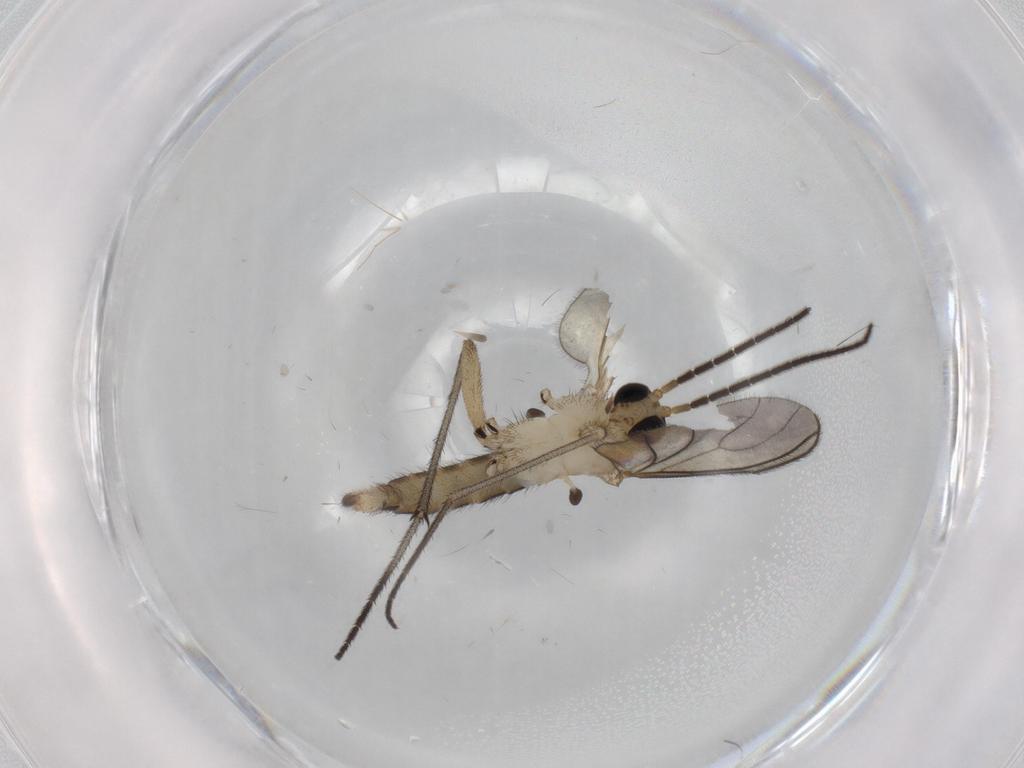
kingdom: Animalia
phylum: Arthropoda
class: Insecta
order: Diptera
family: Sciaridae
